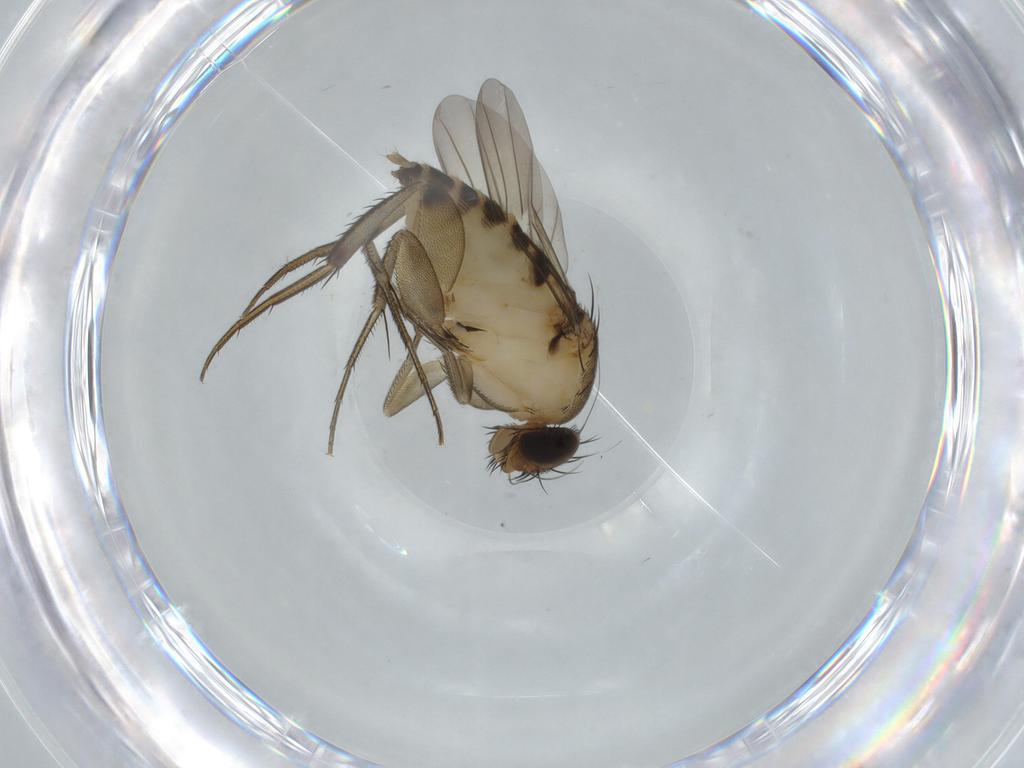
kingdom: Animalia
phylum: Arthropoda
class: Insecta
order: Diptera
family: Phoridae
